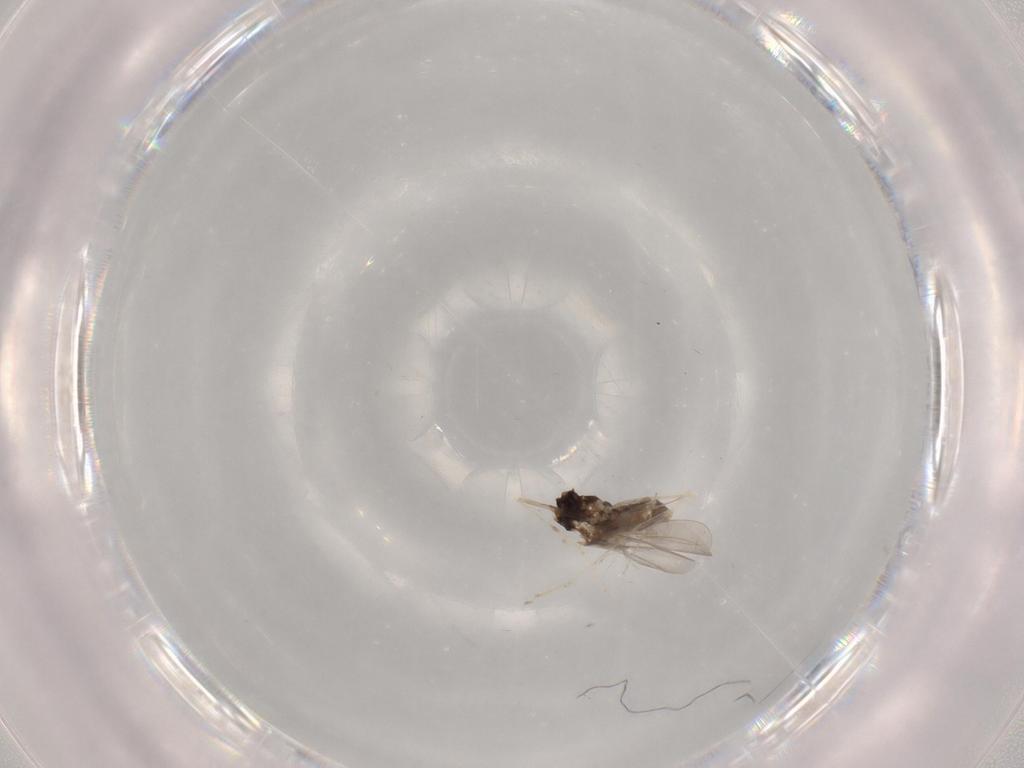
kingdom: Animalia
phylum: Arthropoda
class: Insecta
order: Diptera
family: Cecidomyiidae
